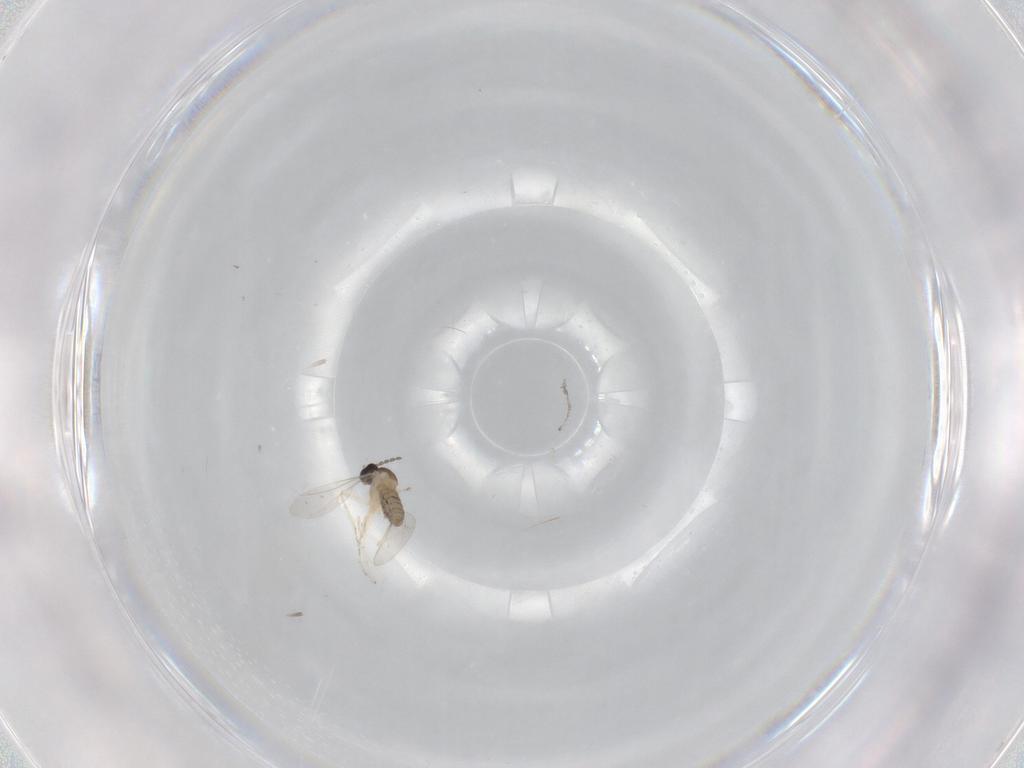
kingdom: Animalia
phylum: Arthropoda
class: Insecta
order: Diptera
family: Cecidomyiidae
